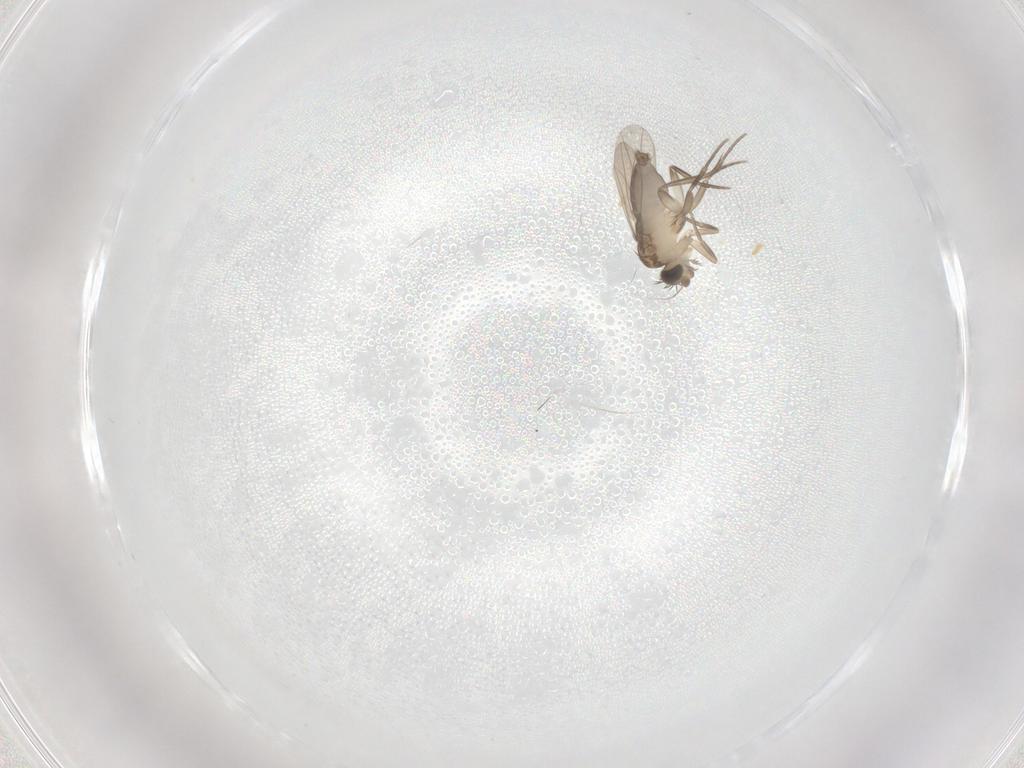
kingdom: Animalia
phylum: Arthropoda
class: Insecta
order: Diptera
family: Phoridae
